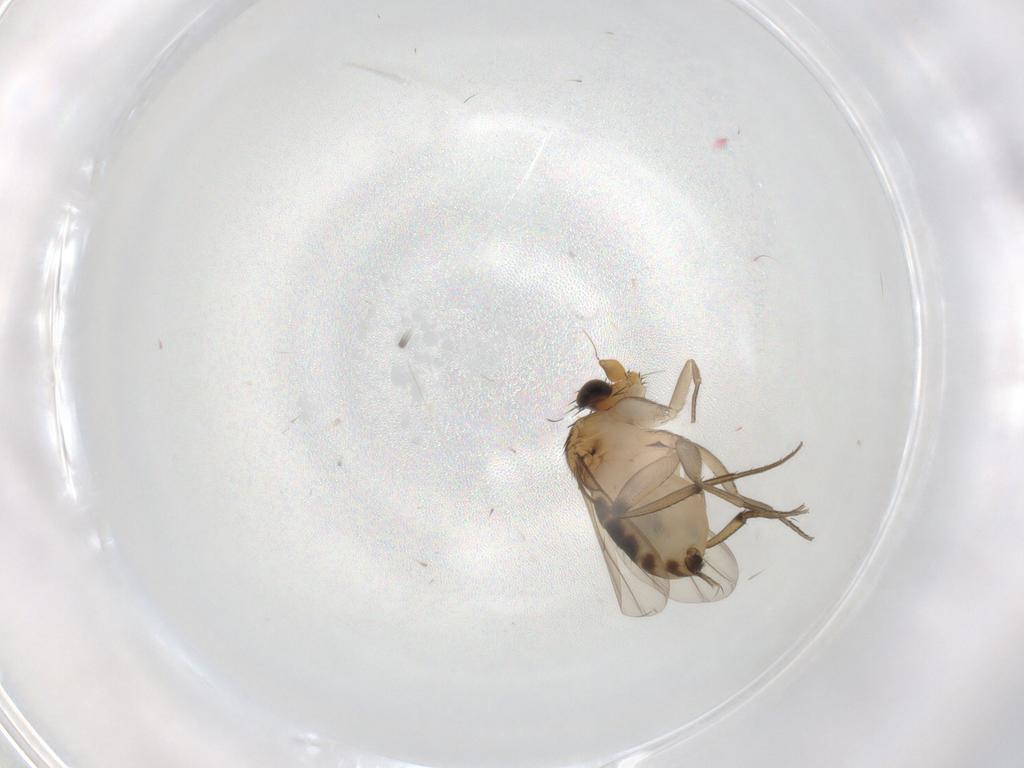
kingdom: Animalia
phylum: Arthropoda
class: Insecta
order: Diptera
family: Phoridae
